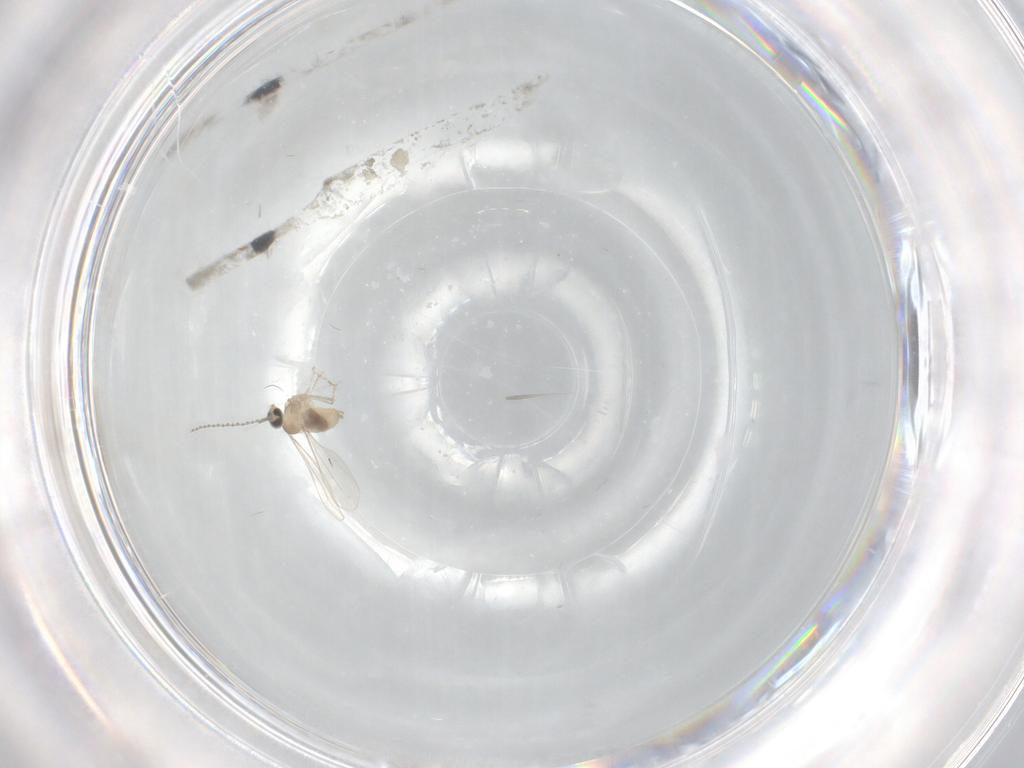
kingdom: Animalia
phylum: Arthropoda
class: Insecta
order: Diptera
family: Cecidomyiidae
